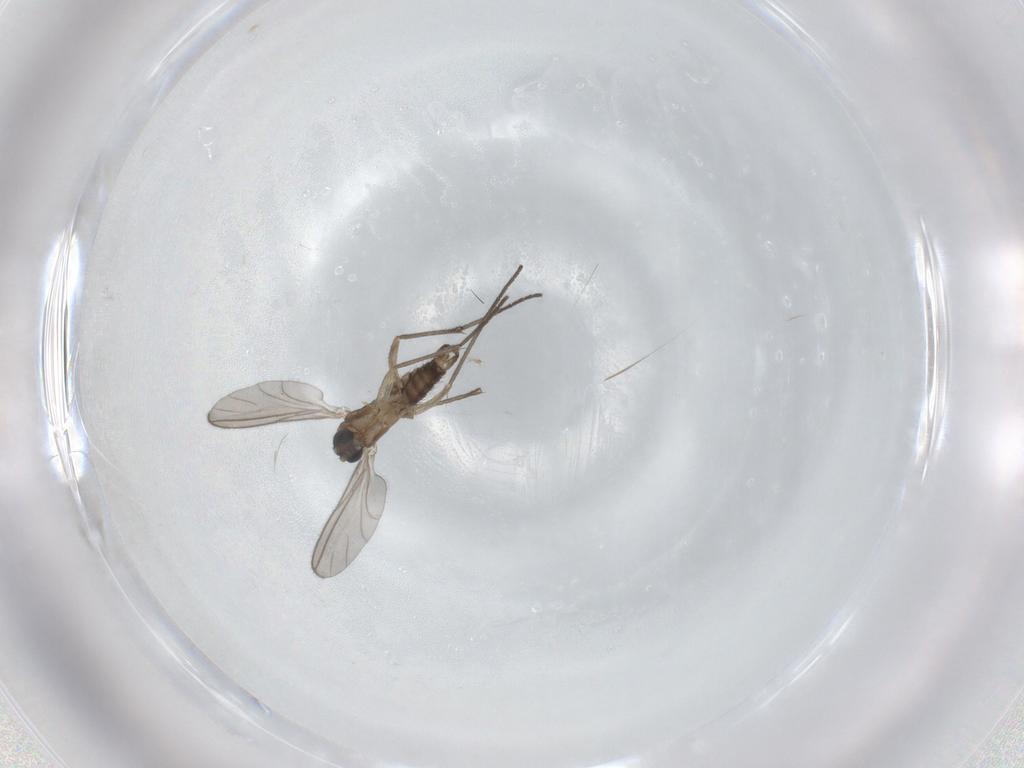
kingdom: Animalia
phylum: Arthropoda
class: Insecta
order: Diptera
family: Sciaridae
